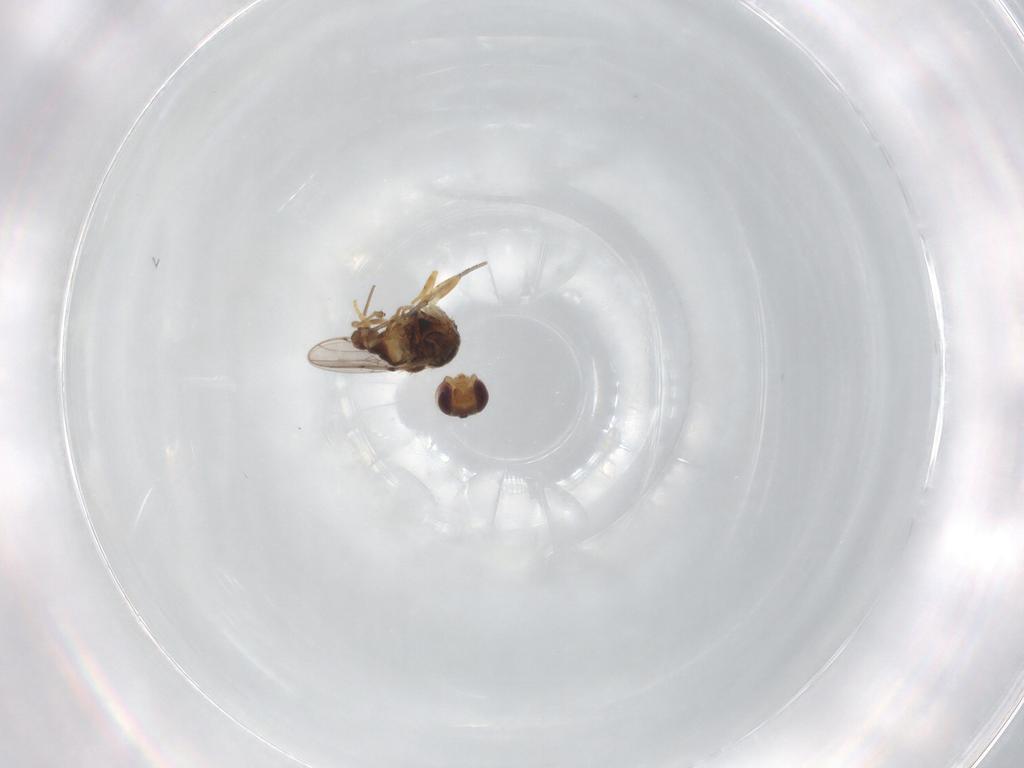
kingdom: Animalia
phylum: Arthropoda
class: Insecta
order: Diptera
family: Chloropidae
